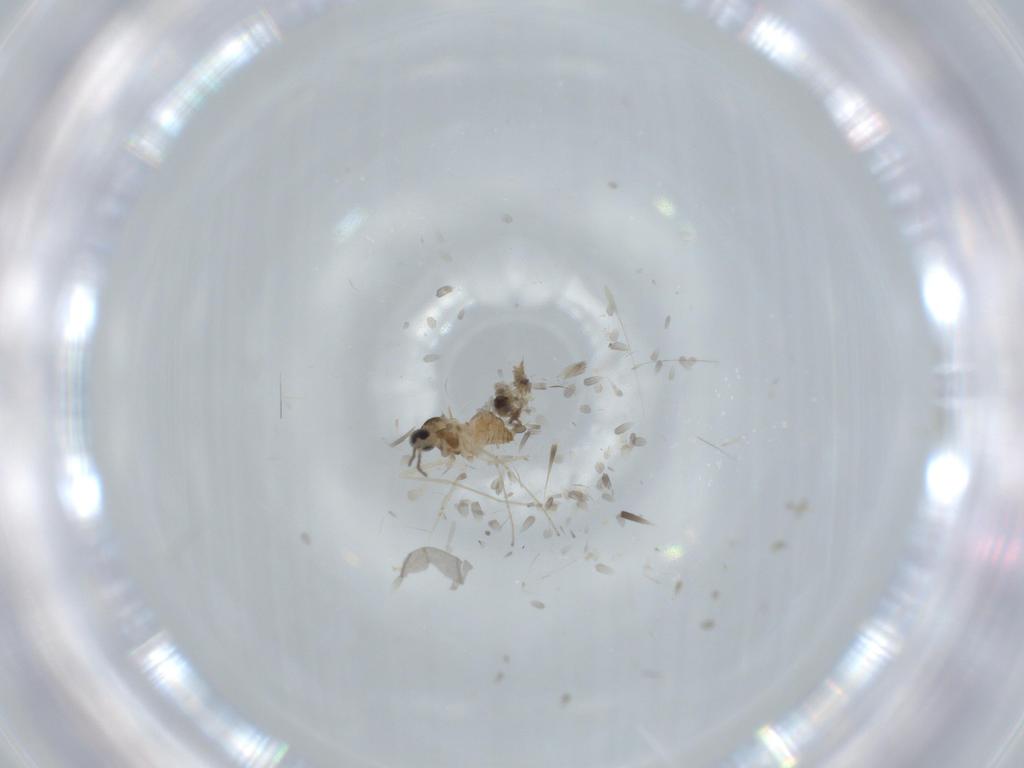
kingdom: Animalia
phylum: Arthropoda
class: Insecta
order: Diptera
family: Cecidomyiidae
